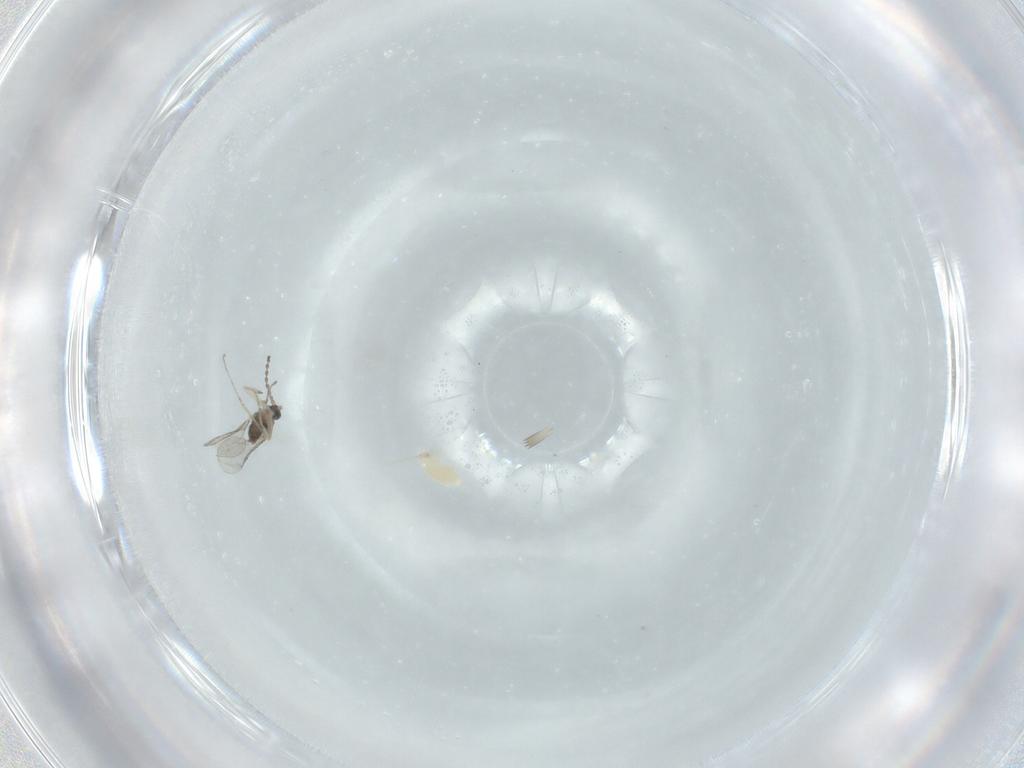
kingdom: Animalia
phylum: Arthropoda
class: Insecta
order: Diptera
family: Cecidomyiidae
